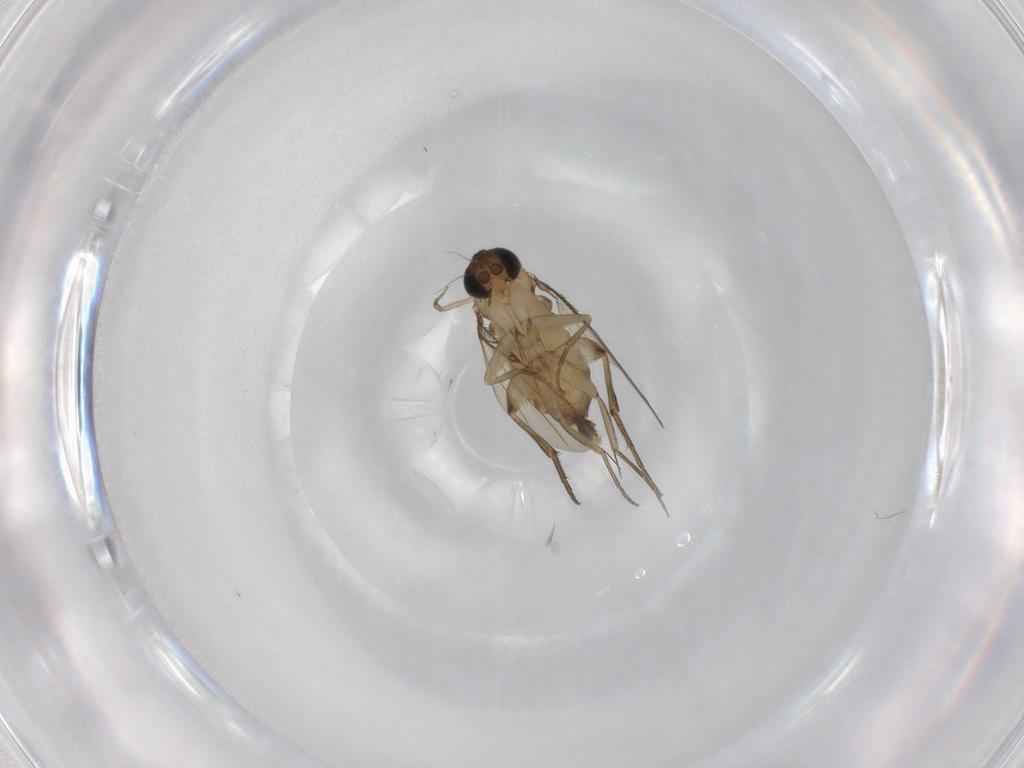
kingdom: Animalia
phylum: Arthropoda
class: Insecta
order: Diptera
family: Phoridae
